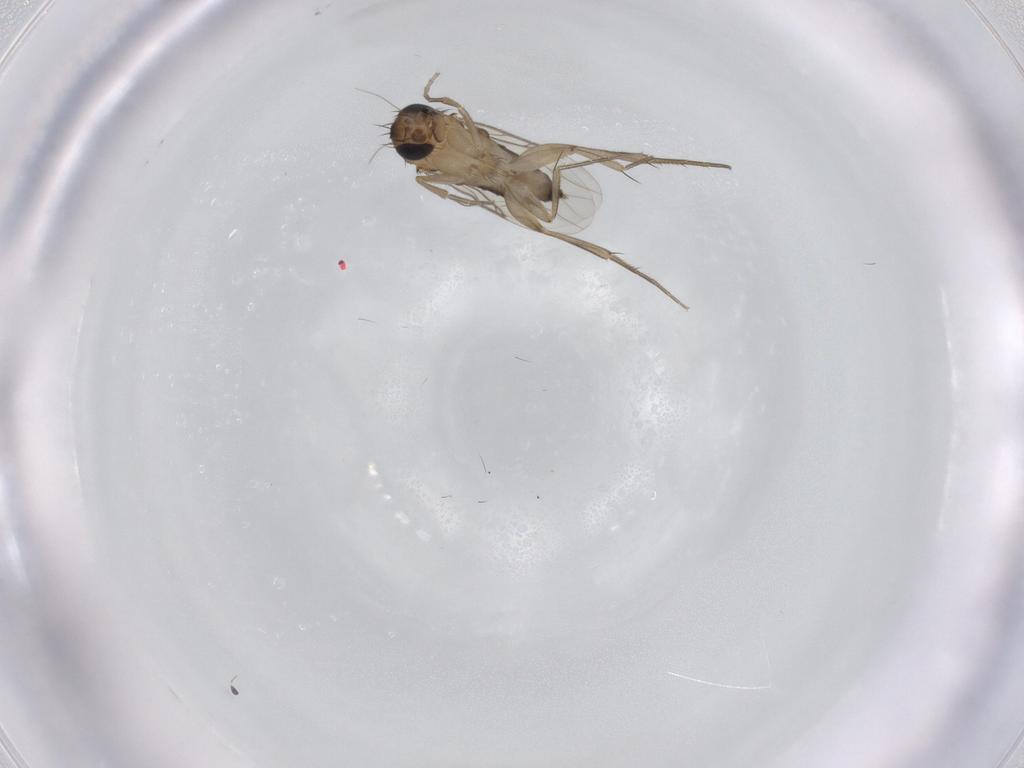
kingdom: Animalia
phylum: Arthropoda
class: Insecta
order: Diptera
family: Phoridae
